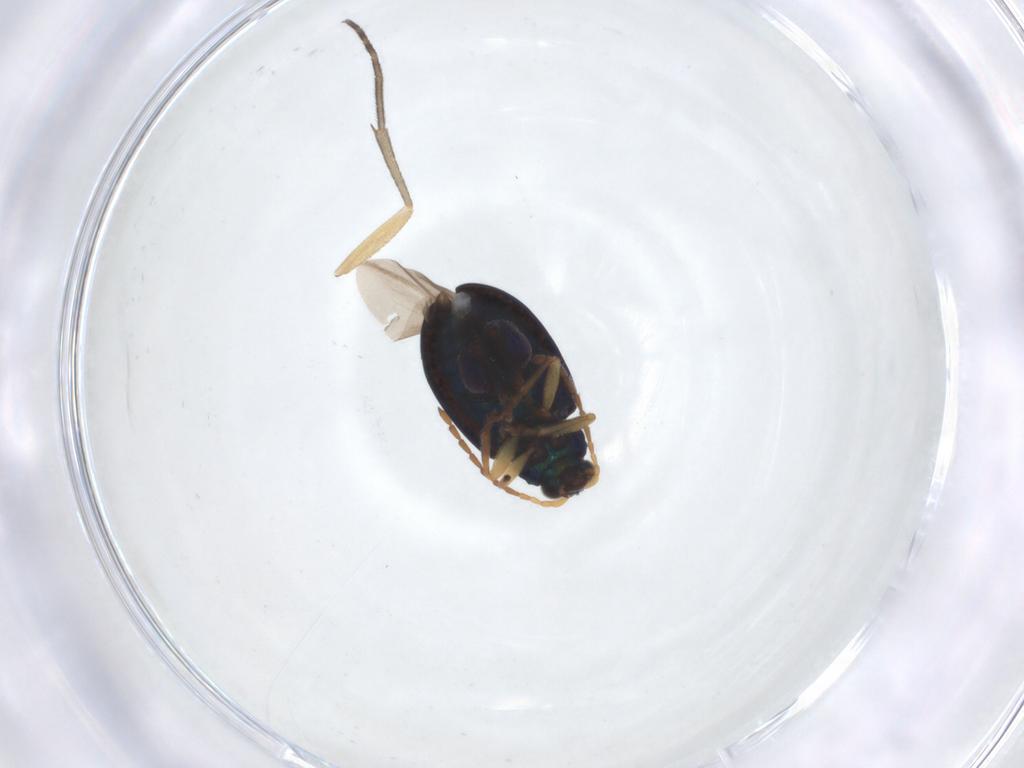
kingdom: Animalia
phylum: Arthropoda
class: Insecta
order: Coleoptera
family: Chrysomelidae
